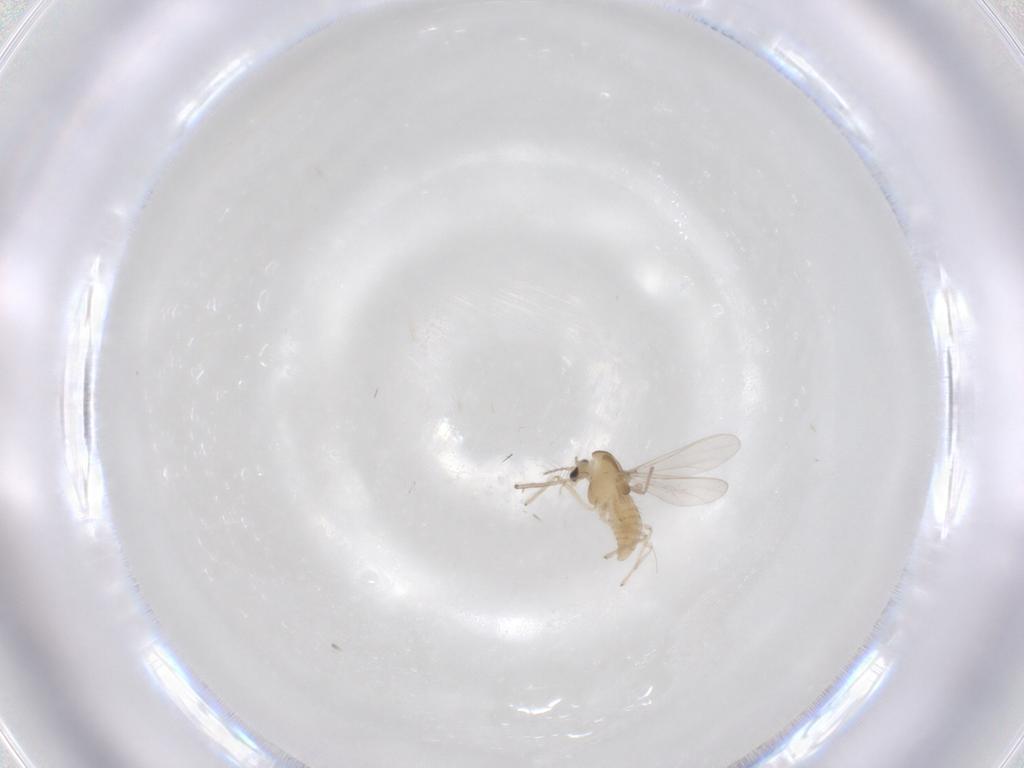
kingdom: Animalia
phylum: Arthropoda
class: Insecta
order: Diptera
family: Chironomidae
